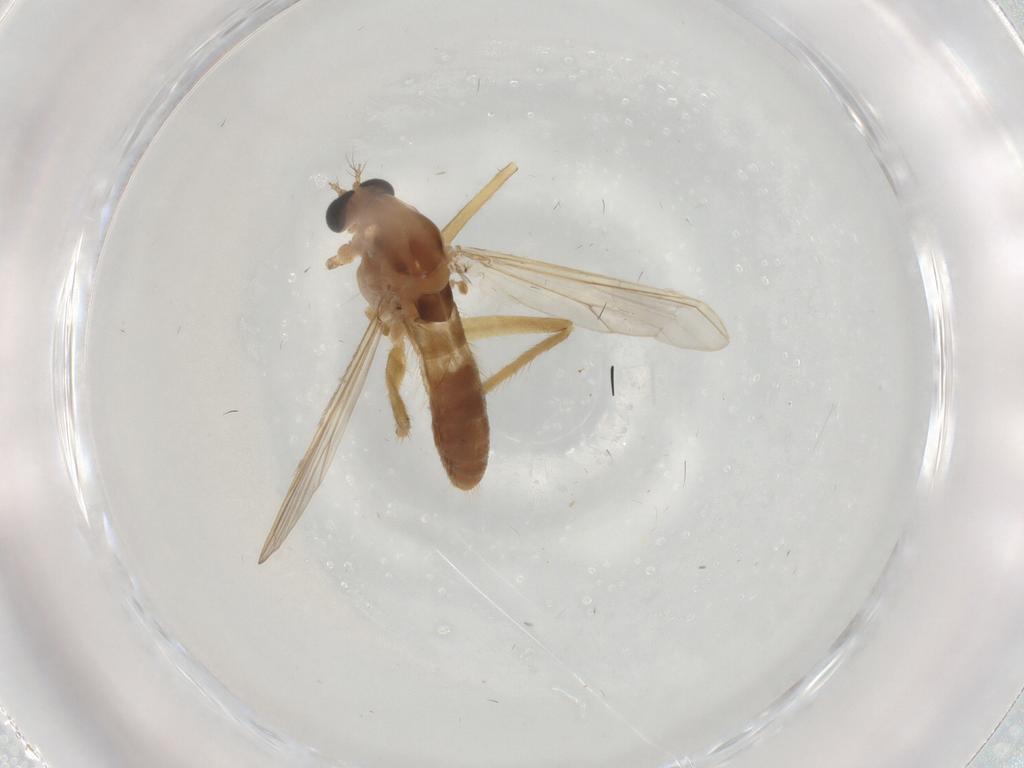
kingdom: Animalia
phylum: Arthropoda
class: Insecta
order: Diptera
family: Chironomidae
